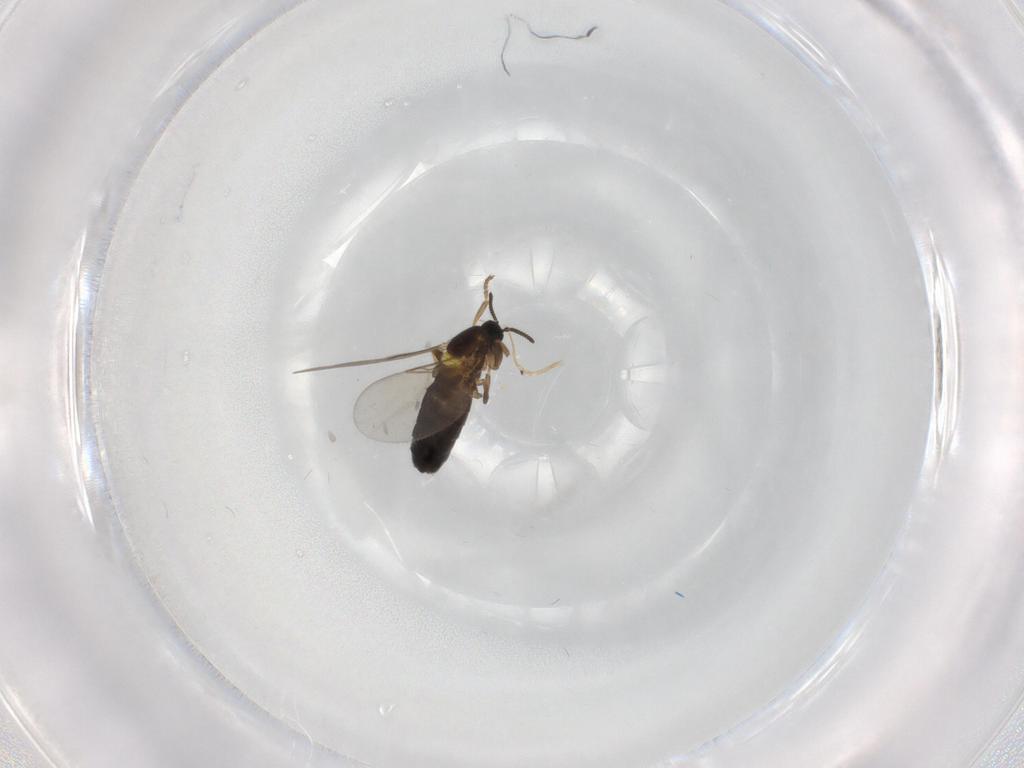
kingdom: Animalia
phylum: Arthropoda
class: Insecta
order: Diptera
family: Scatopsidae
